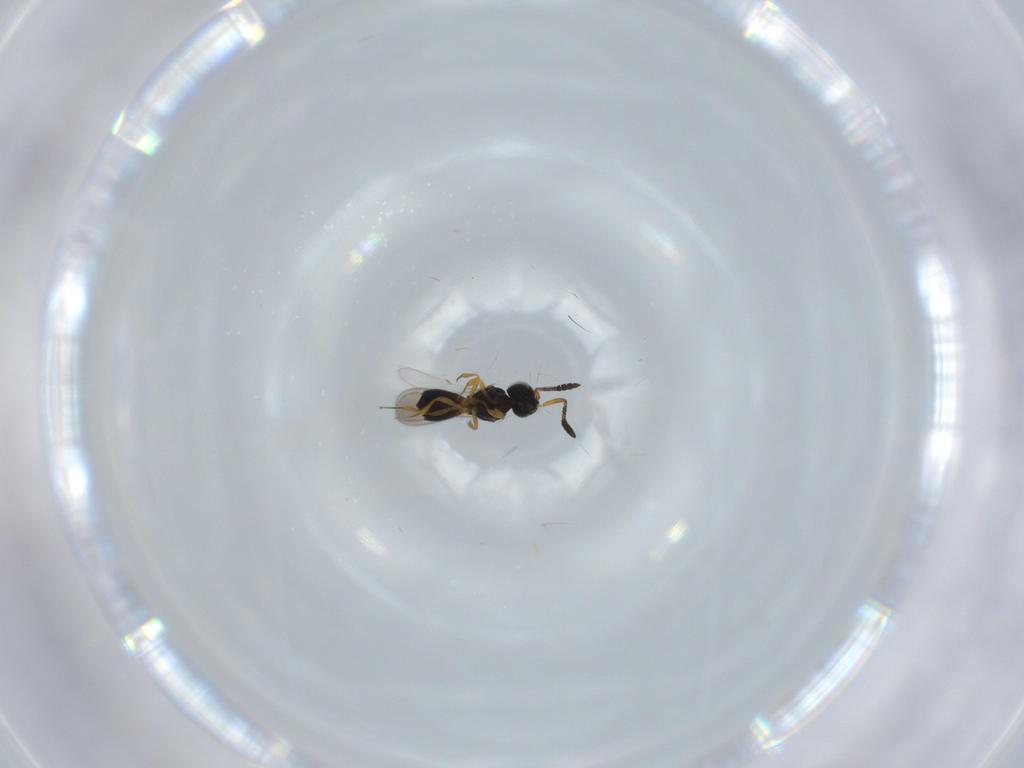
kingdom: Animalia
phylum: Arthropoda
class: Insecta
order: Hymenoptera
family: Scelionidae
